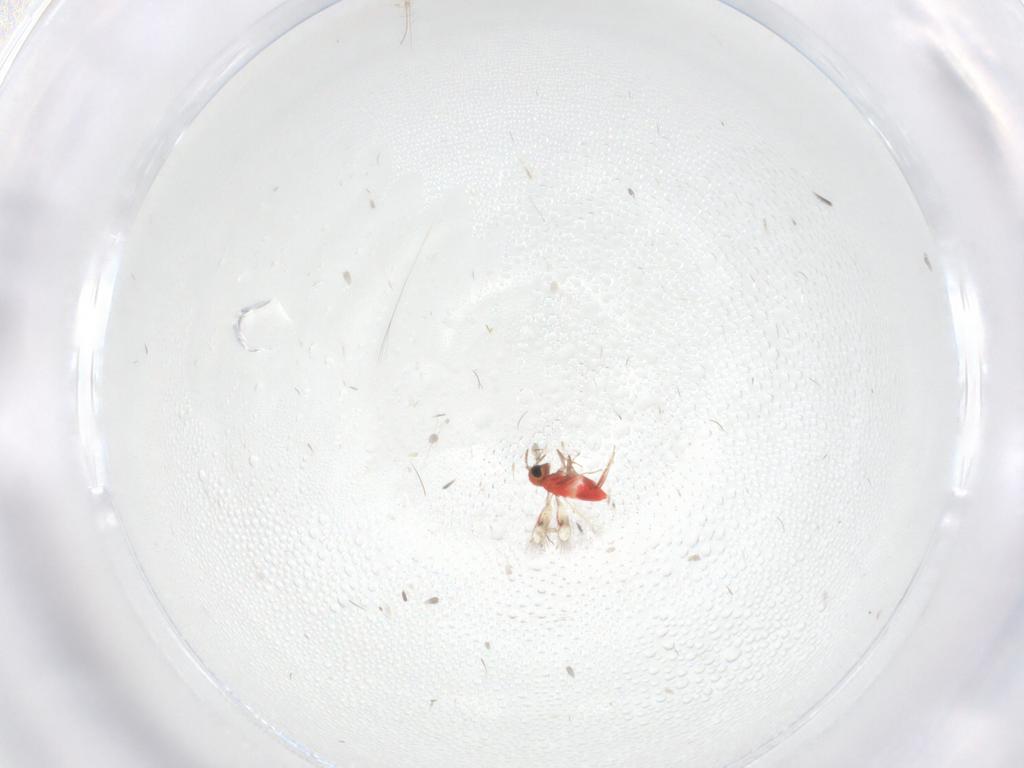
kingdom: Animalia
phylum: Arthropoda
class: Insecta
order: Hymenoptera
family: Trichogrammatidae
